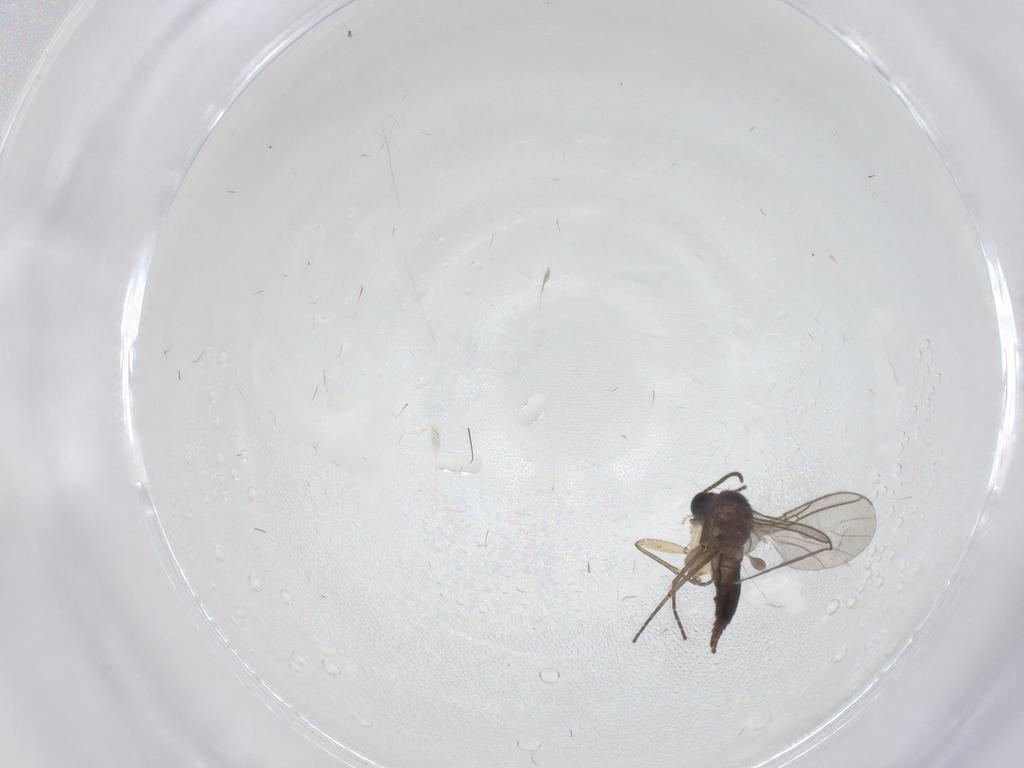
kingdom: Animalia
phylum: Arthropoda
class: Insecta
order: Diptera
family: Sciaridae
